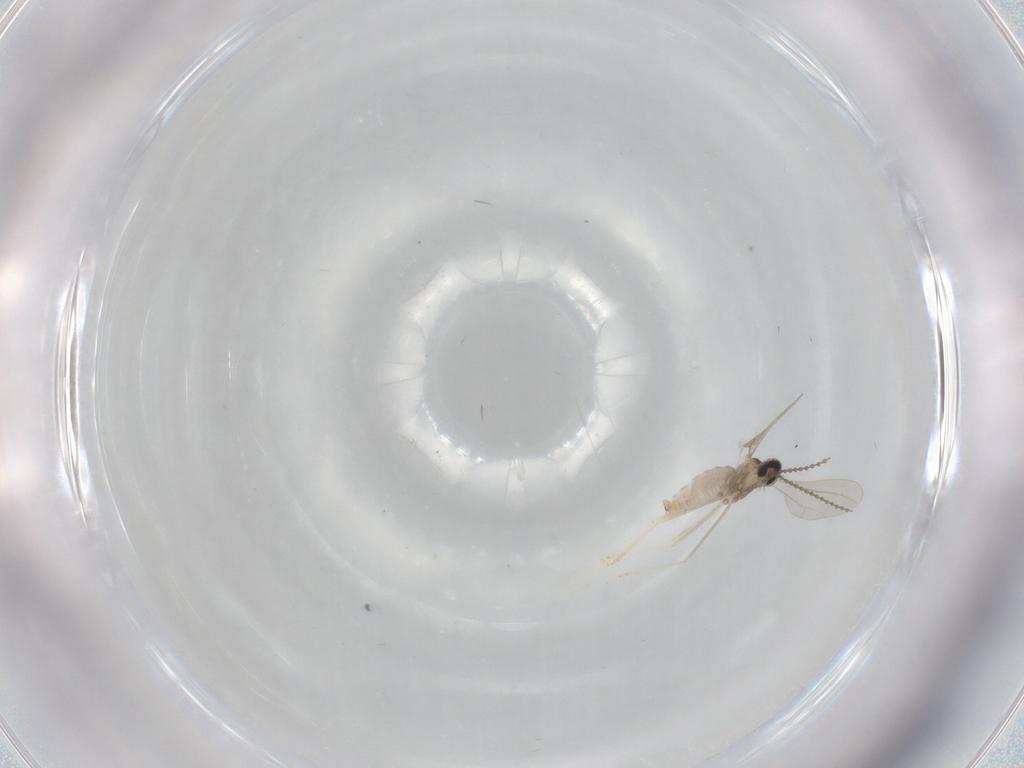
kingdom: Animalia
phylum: Arthropoda
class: Insecta
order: Diptera
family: Cecidomyiidae
